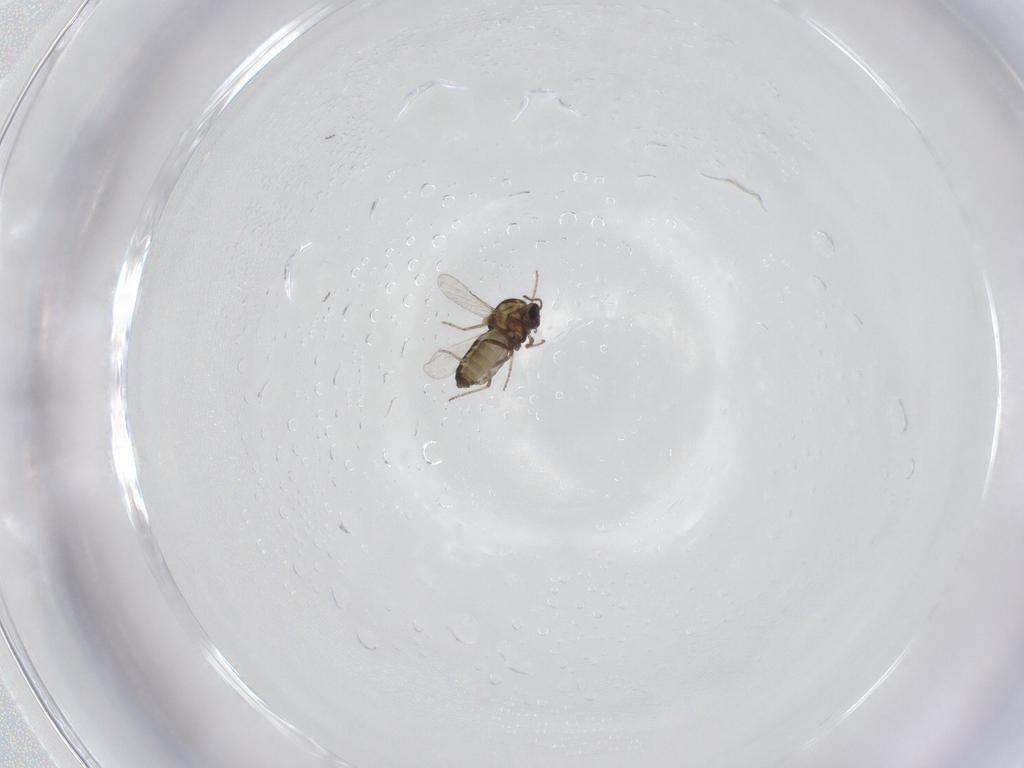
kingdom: Animalia
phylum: Arthropoda
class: Insecta
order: Diptera
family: Ceratopogonidae
